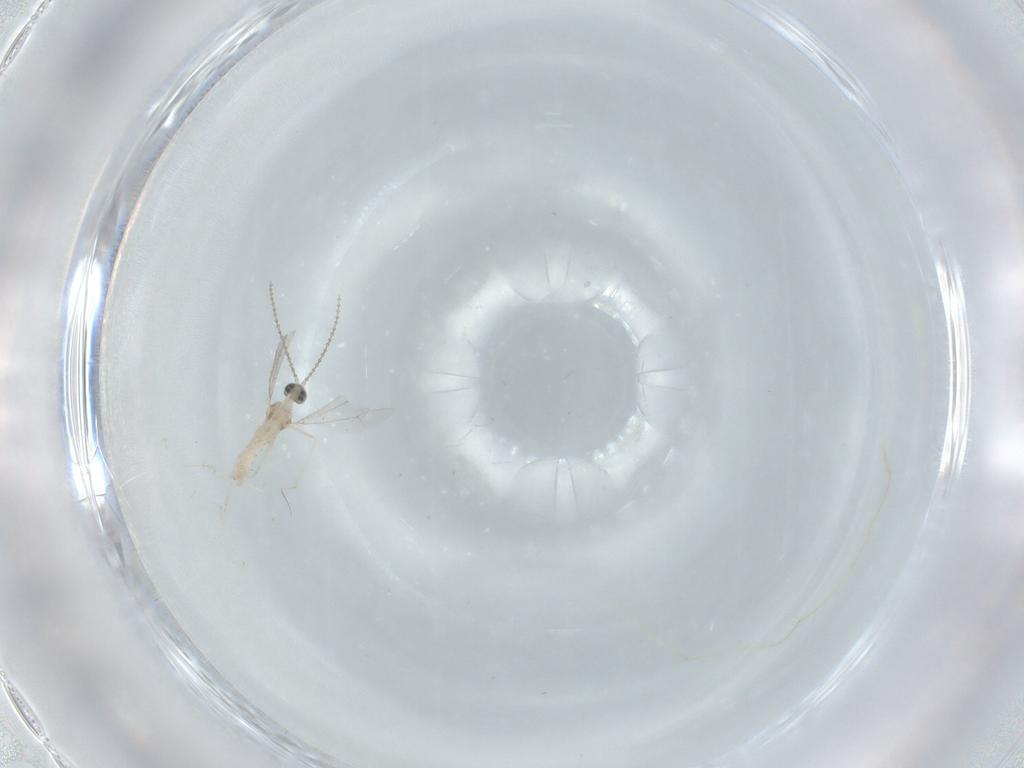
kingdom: Animalia
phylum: Arthropoda
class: Insecta
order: Diptera
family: Cecidomyiidae
